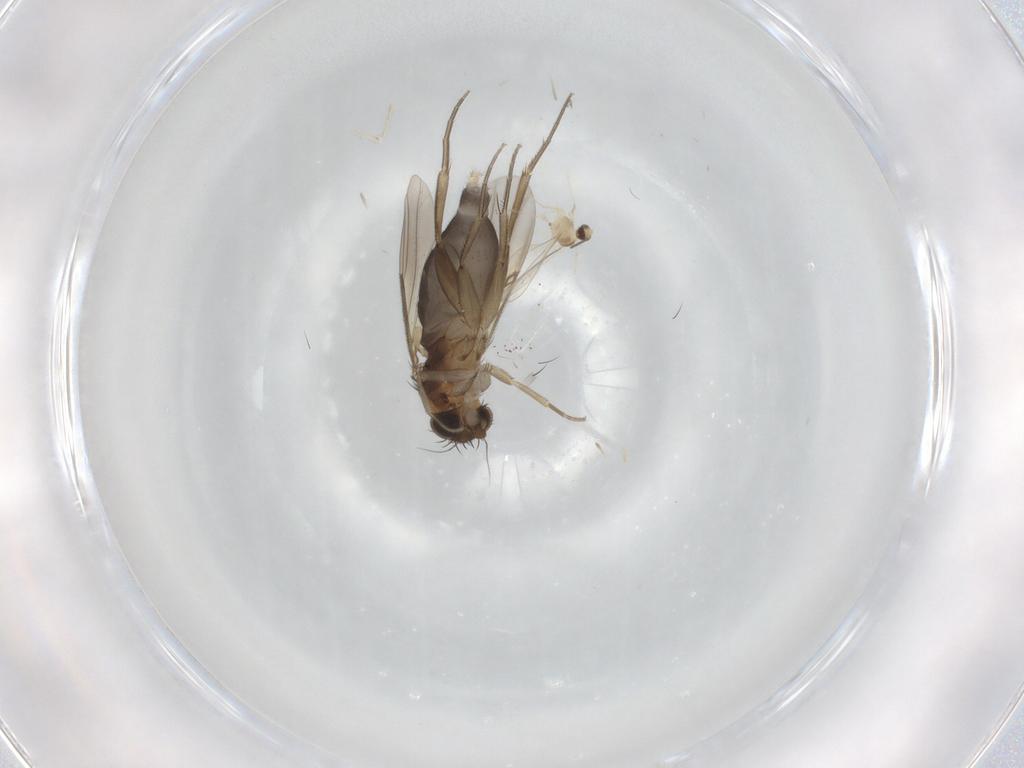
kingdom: Animalia
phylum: Arthropoda
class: Insecta
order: Diptera
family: Phoridae
